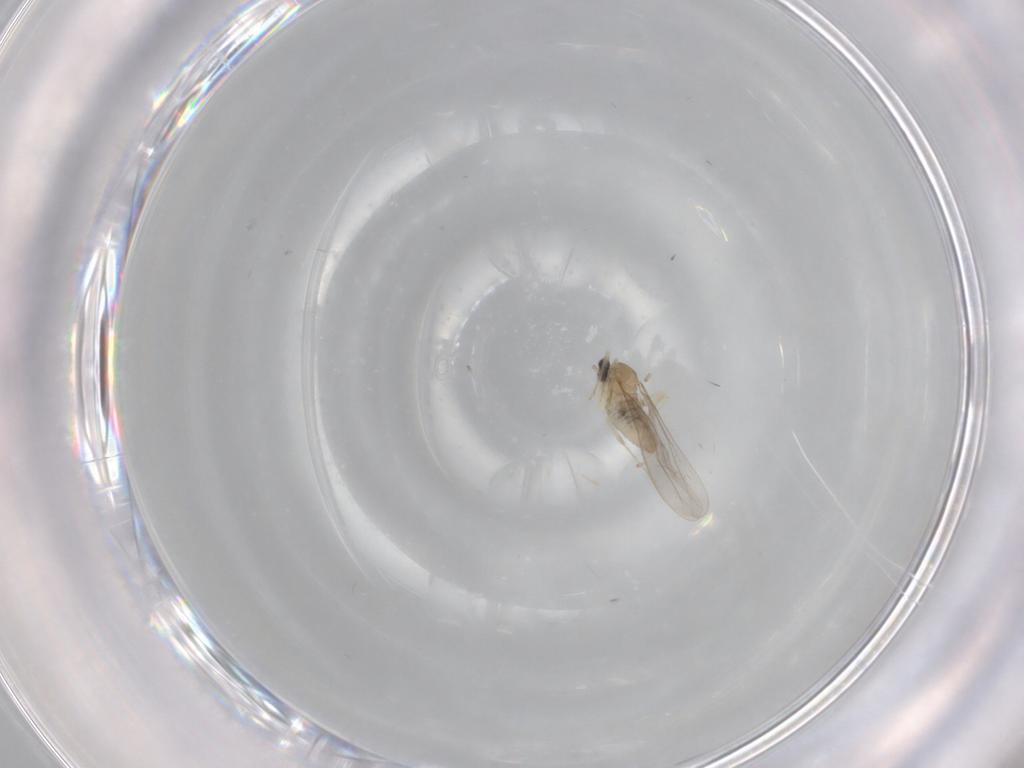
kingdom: Animalia
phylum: Arthropoda
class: Insecta
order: Diptera
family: Cecidomyiidae
